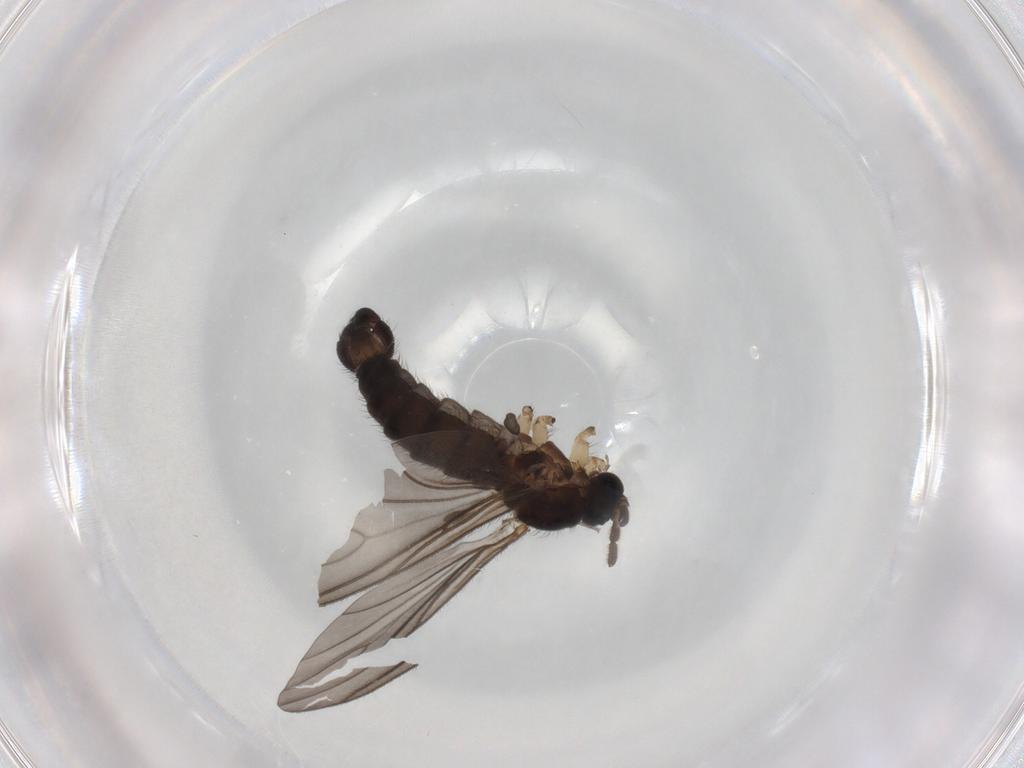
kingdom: Animalia
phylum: Arthropoda
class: Insecta
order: Diptera
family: Sciaridae
